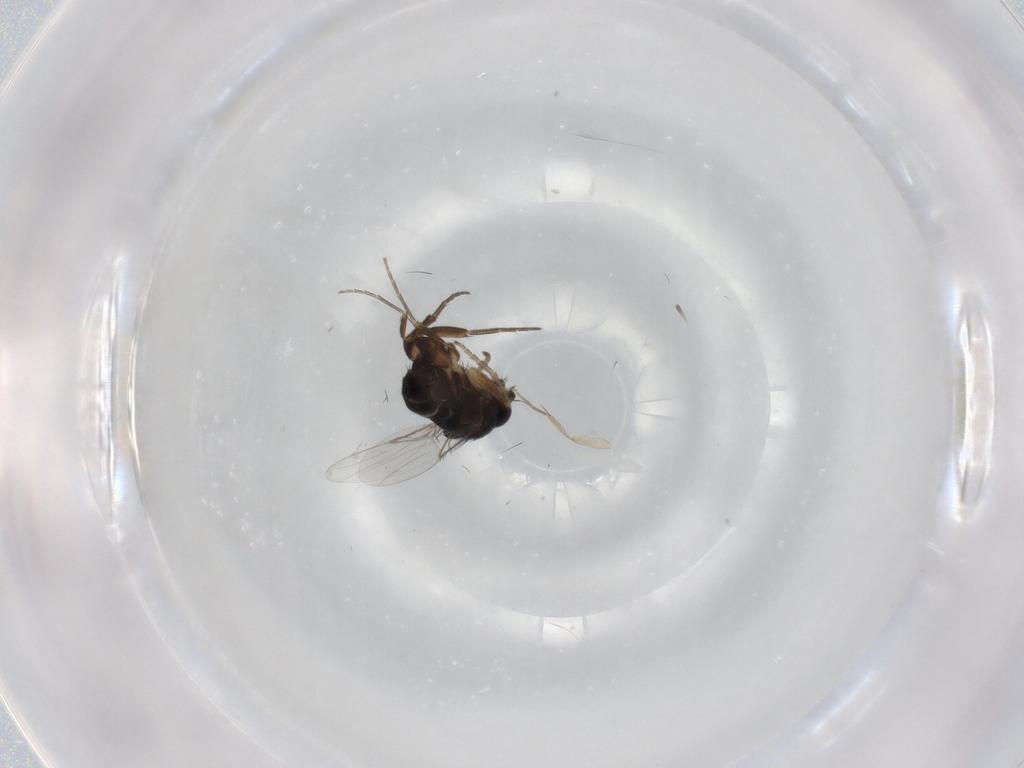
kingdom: Animalia
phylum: Arthropoda
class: Insecta
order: Diptera
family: Phoridae
